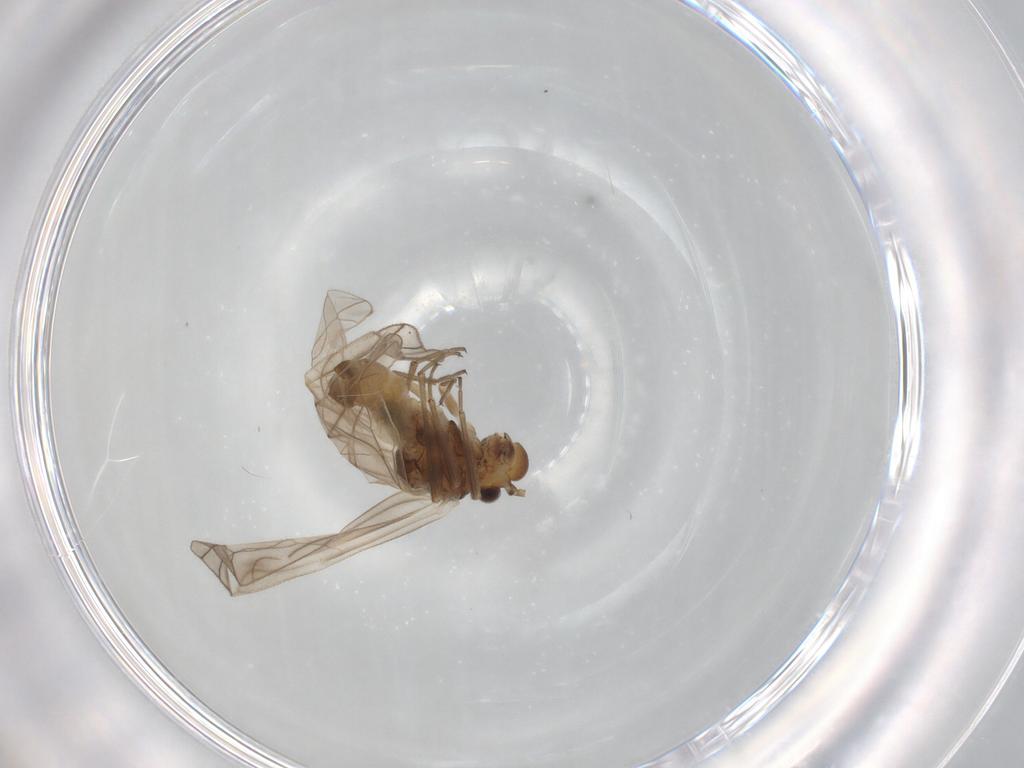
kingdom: Animalia
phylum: Arthropoda
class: Insecta
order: Psocodea
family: Philotarsidae
